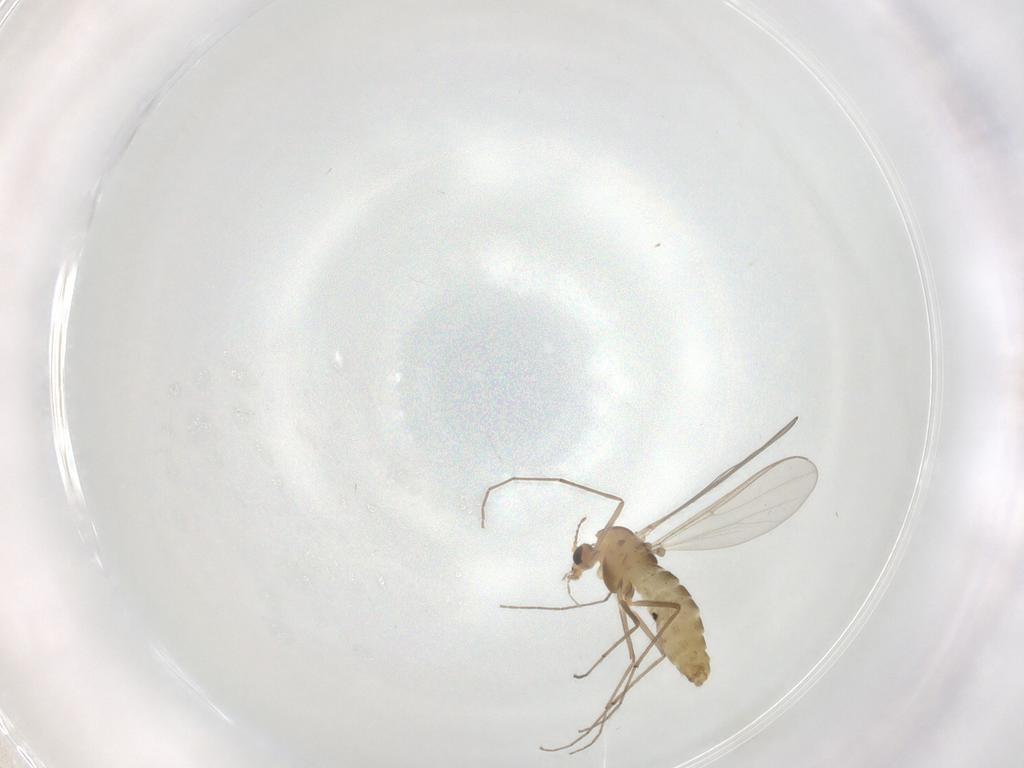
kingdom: Animalia
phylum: Arthropoda
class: Insecta
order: Diptera
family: Chironomidae
